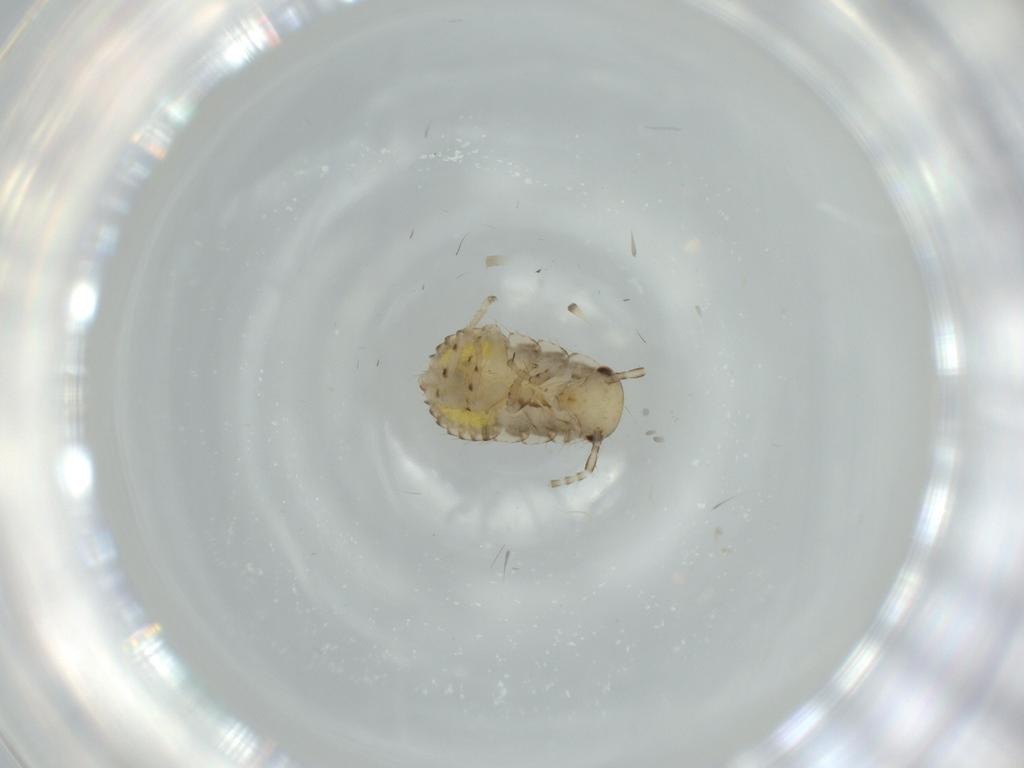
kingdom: Animalia
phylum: Arthropoda
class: Insecta
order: Blattodea
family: Ectobiidae
